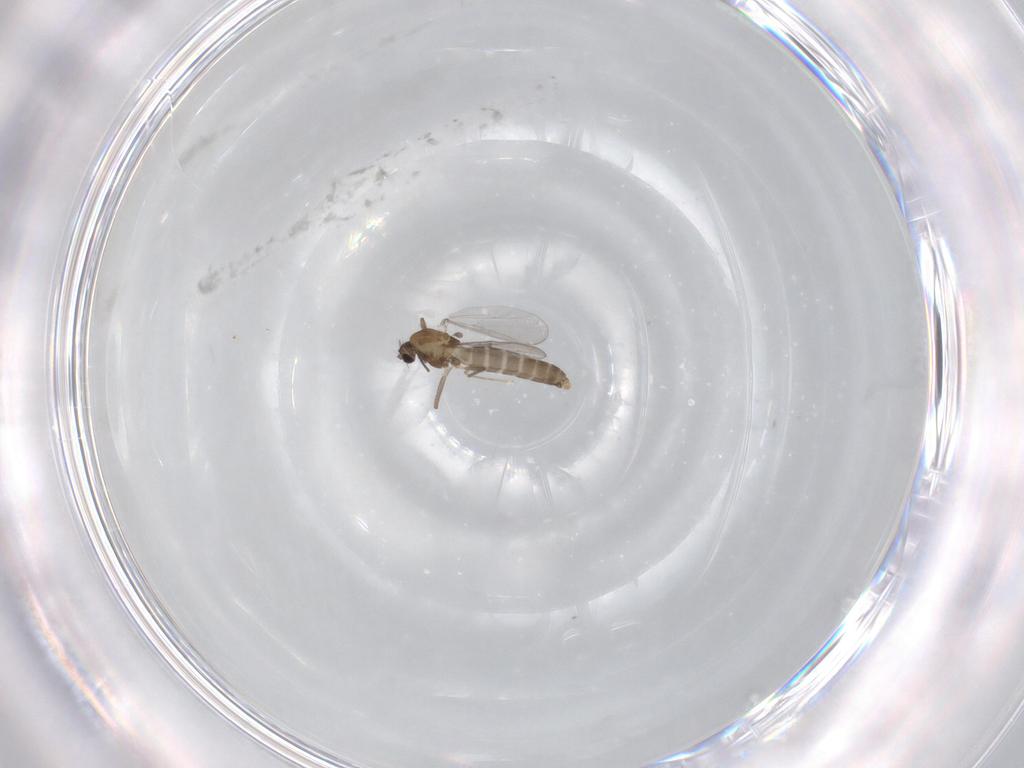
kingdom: Animalia
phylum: Arthropoda
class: Insecta
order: Diptera
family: Chironomidae
